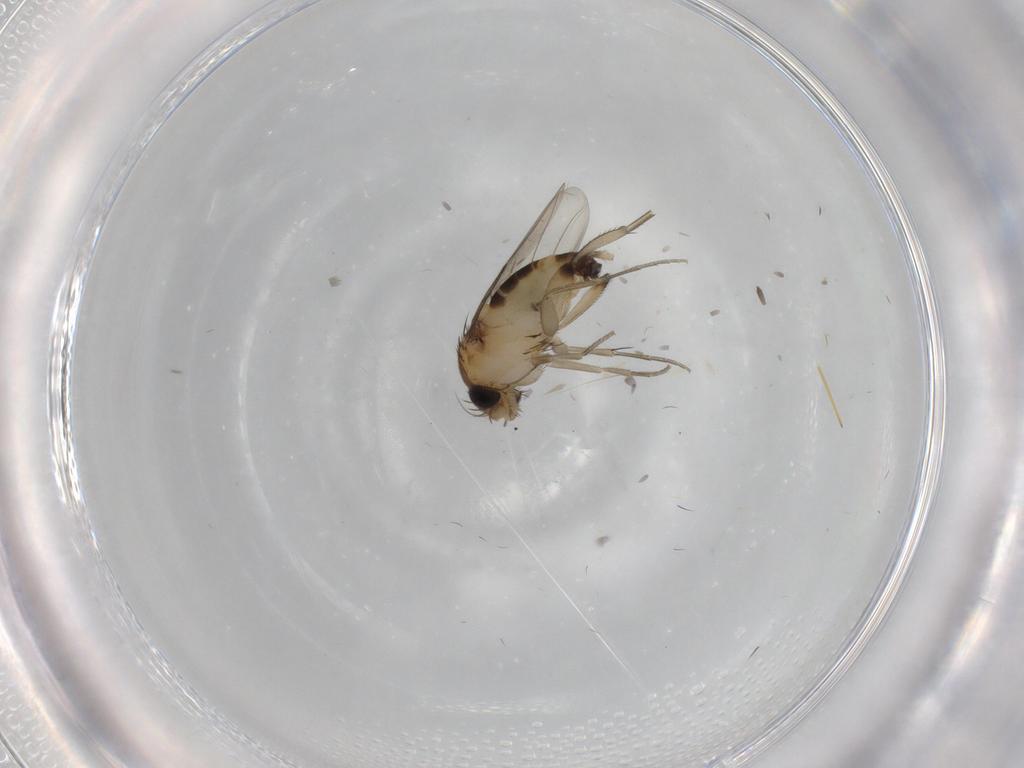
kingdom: Animalia
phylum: Arthropoda
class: Insecta
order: Diptera
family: Phoridae
